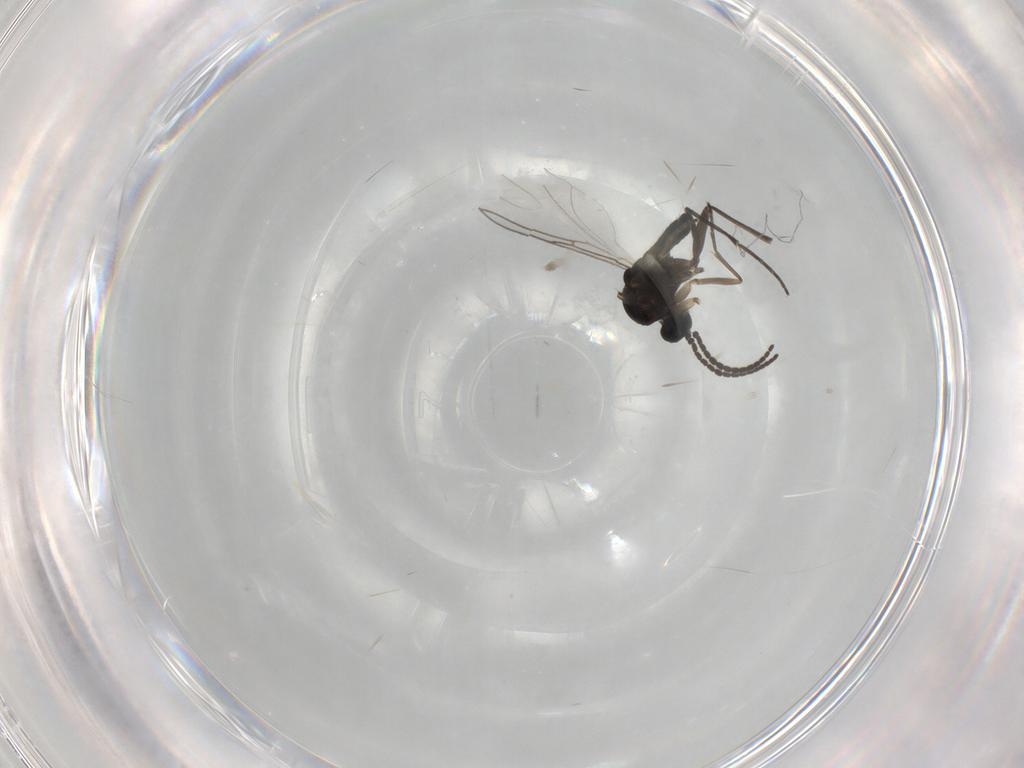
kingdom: Animalia
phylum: Arthropoda
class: Insecta
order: Diptera
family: Sciaridae
